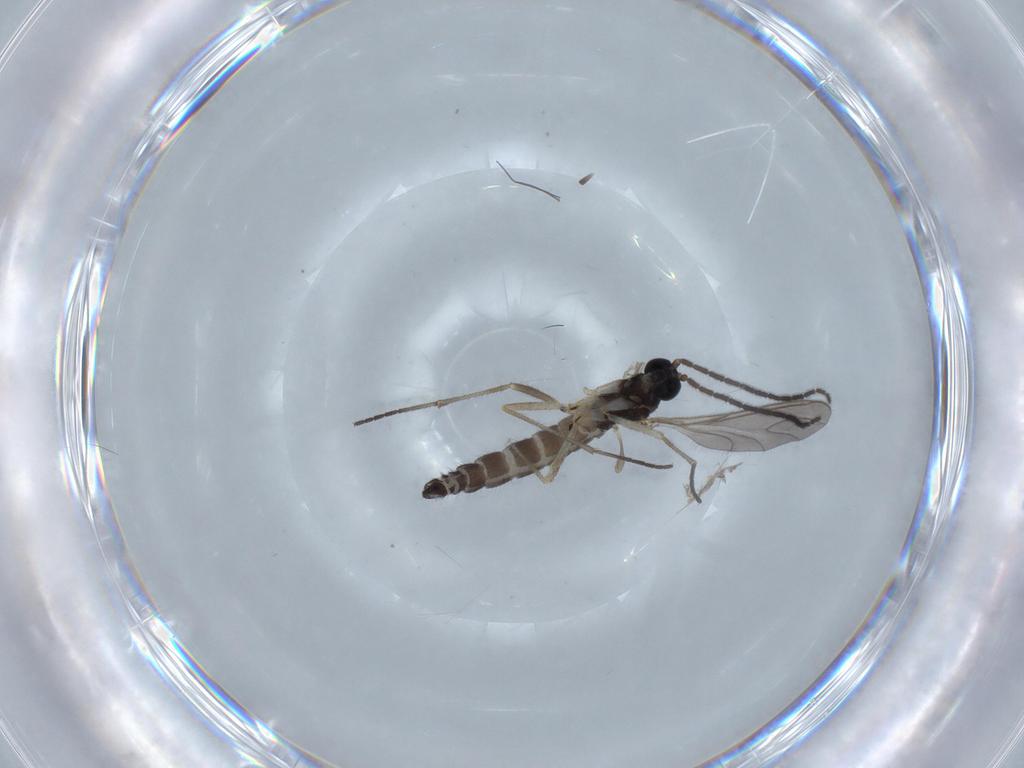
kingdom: Animalia
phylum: Arthropoda
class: Insecta
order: Diptera
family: Sciaridae
